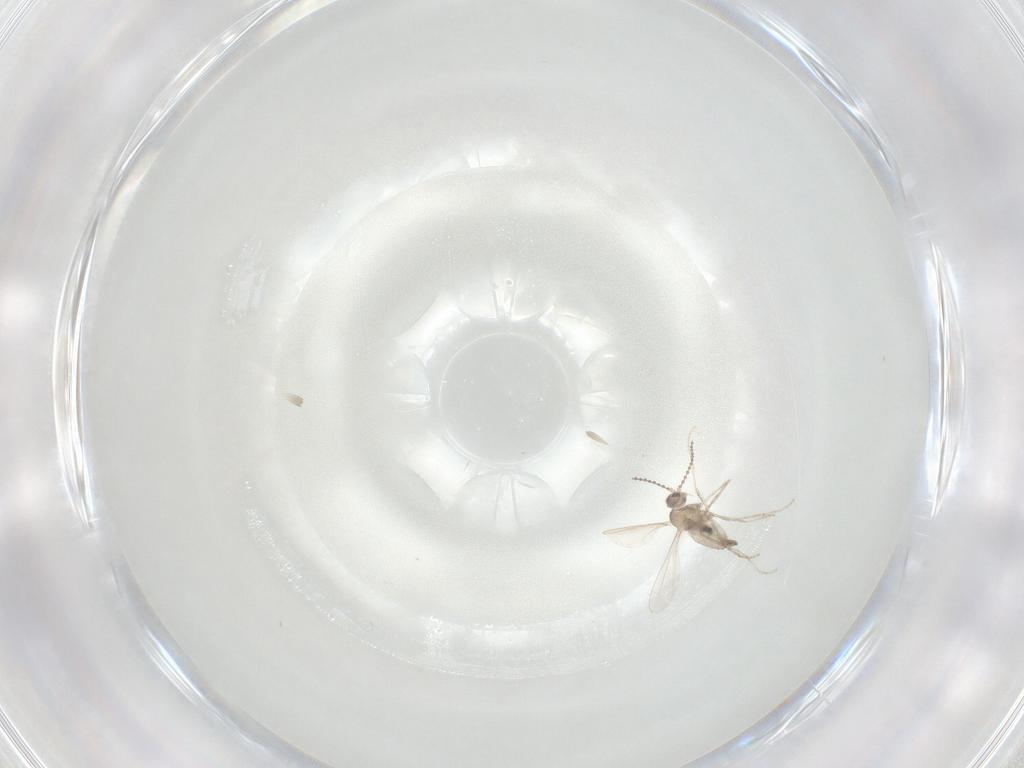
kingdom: Animalia
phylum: Arthropoda
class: Insecta
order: Diptera
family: Cecidomyiidae
